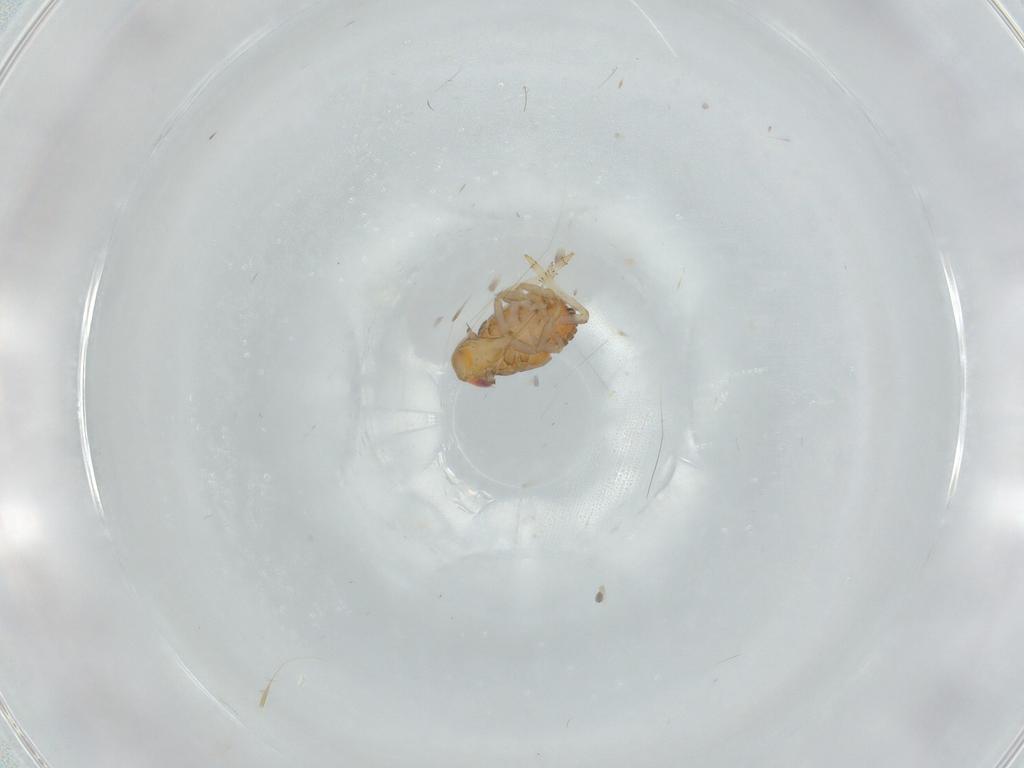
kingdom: Animalia
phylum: Arthropoda
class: Insecta
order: Hemiptera
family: Issidae
